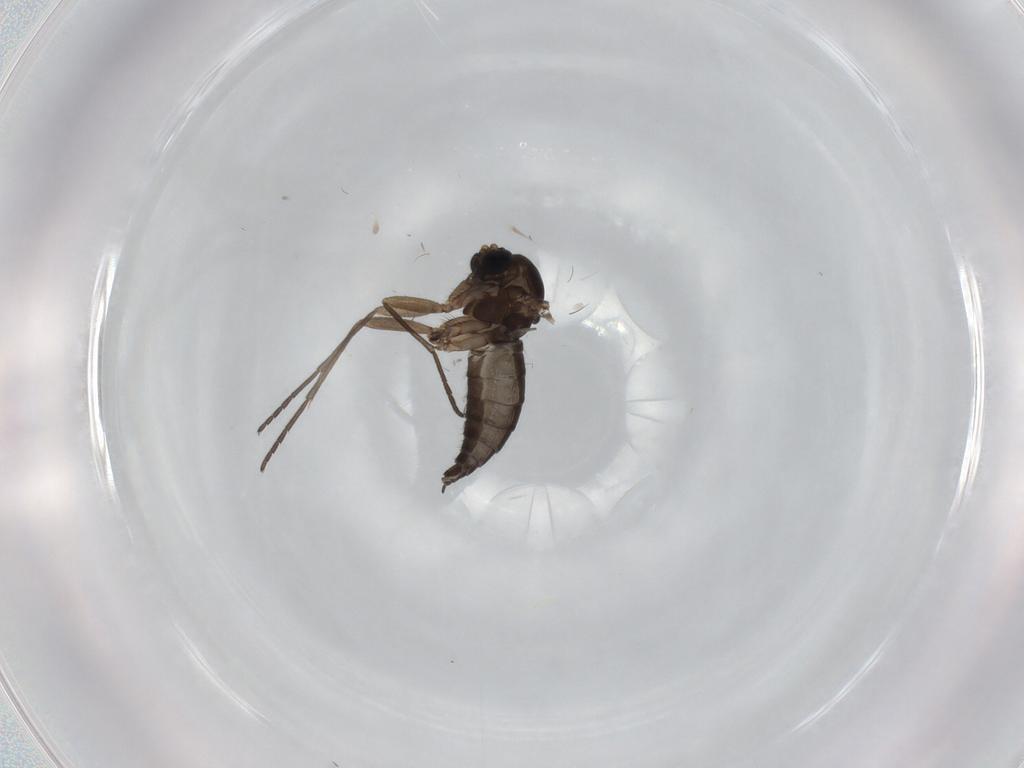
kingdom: Animalia
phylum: Arthropoda
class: Insecta
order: Diptera
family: Sciaridae
